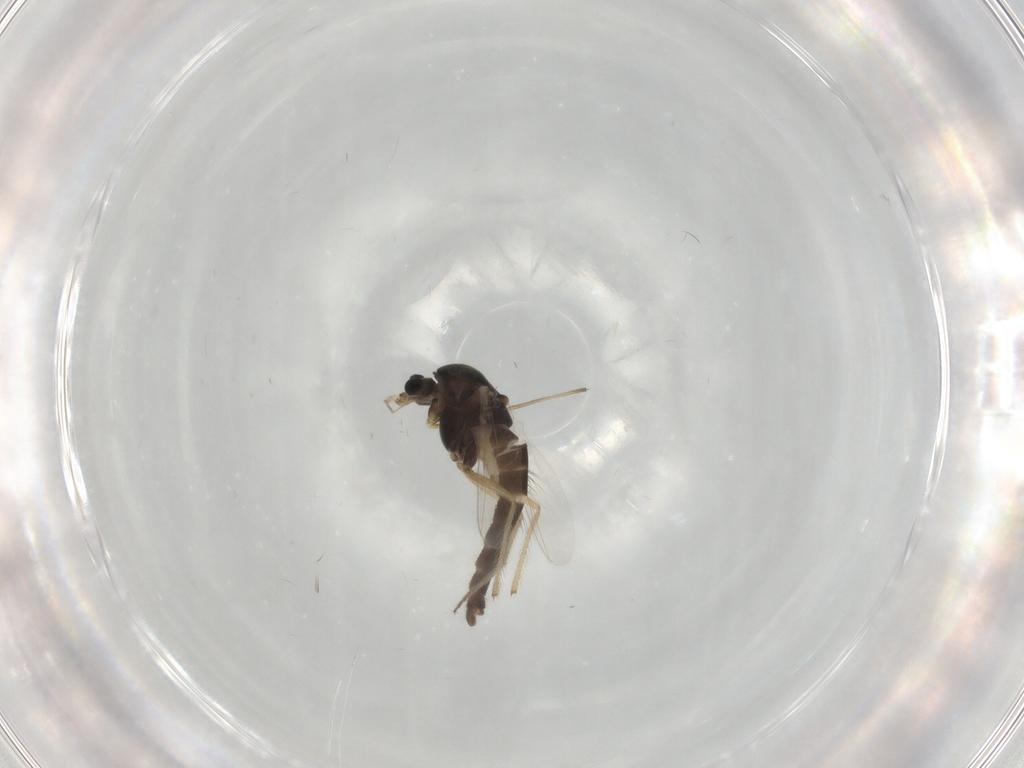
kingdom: Animalia
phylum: Arthropoda
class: Insecta
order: Diptera
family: Chironomidae
